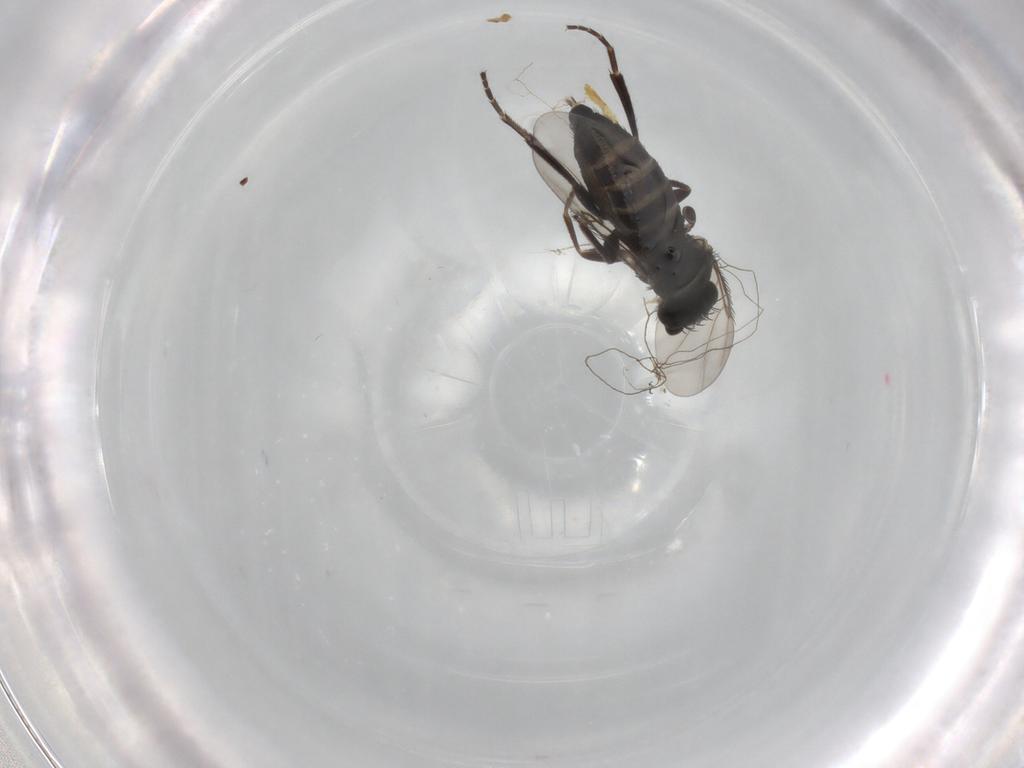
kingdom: Animalia
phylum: Arthropoda
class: Insecta
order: Diptera
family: Phoridae
